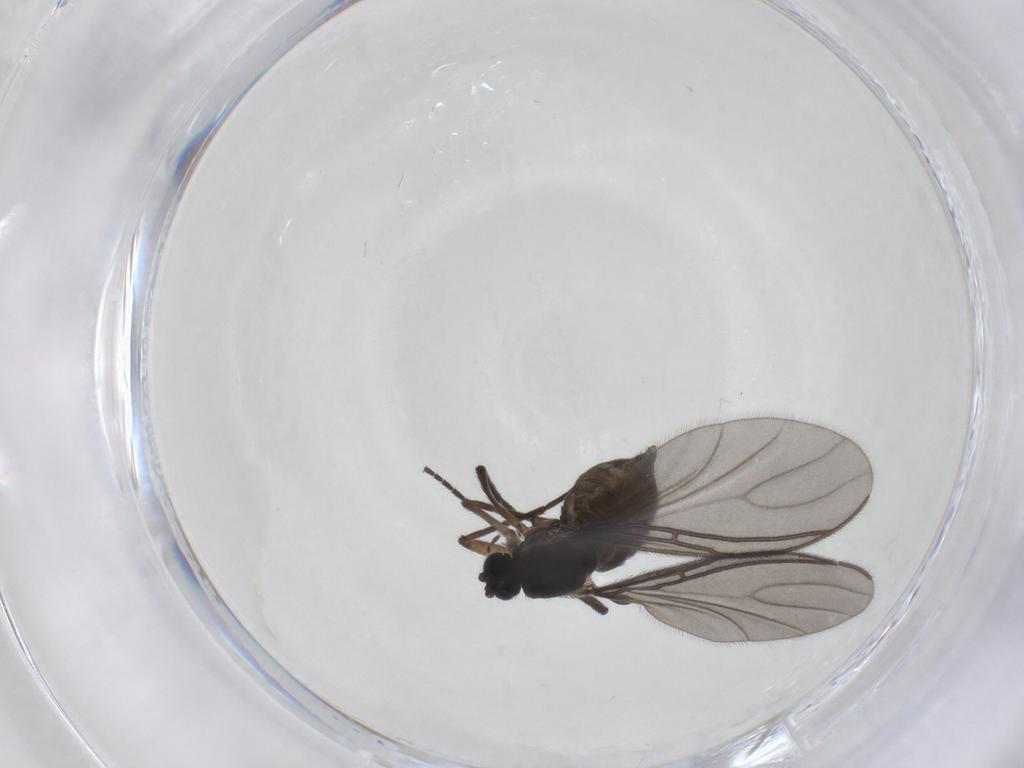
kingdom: Animalia
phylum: Arthropoda
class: Insecta
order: Diptera
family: Sciaridae
